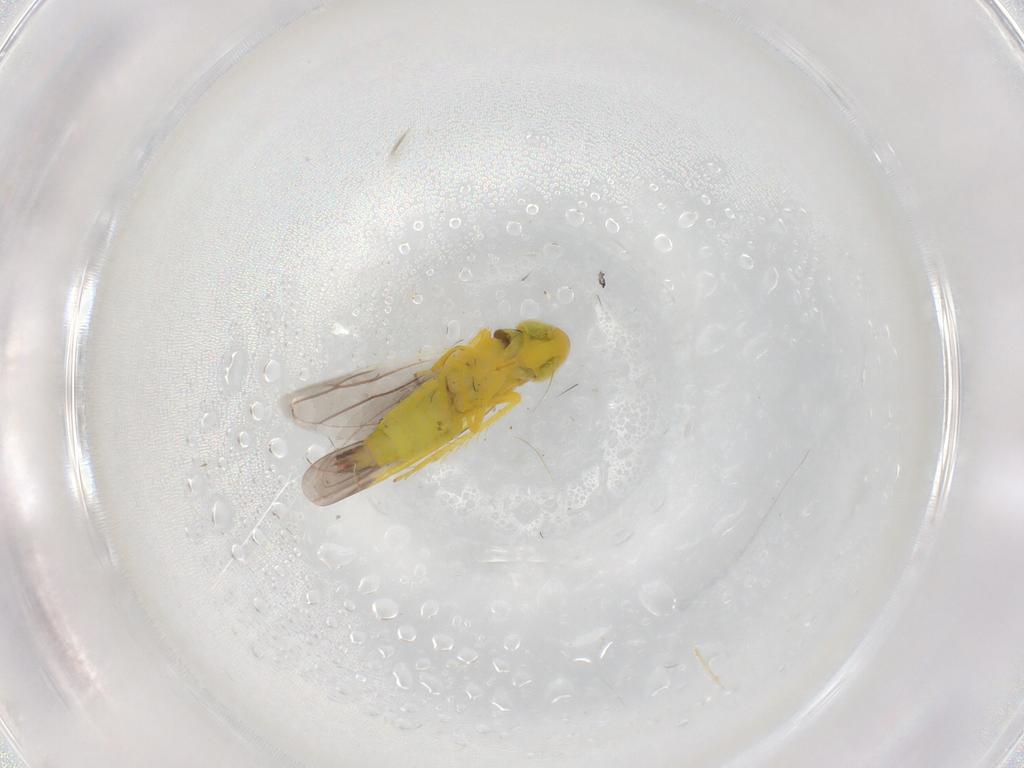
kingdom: Animalia
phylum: Arthropoda
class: Insecta
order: Hemiptera
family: Cicadellidae
